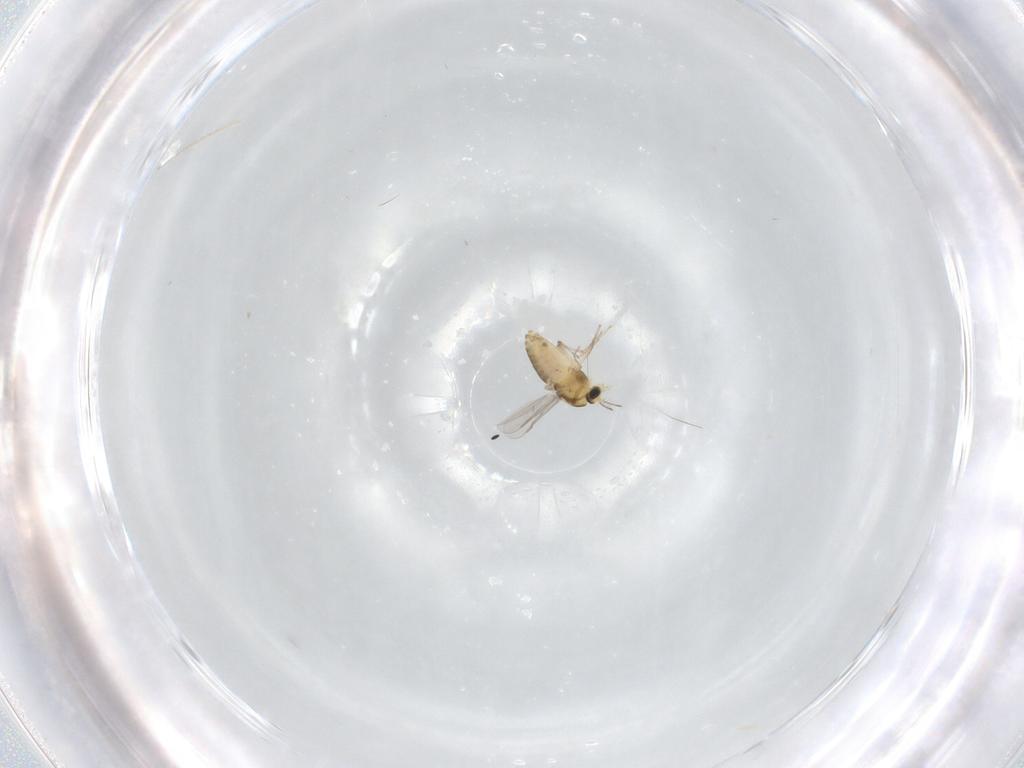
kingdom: Animalia
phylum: Arthropoda
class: Insecta
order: Diptera
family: Chironomidae
